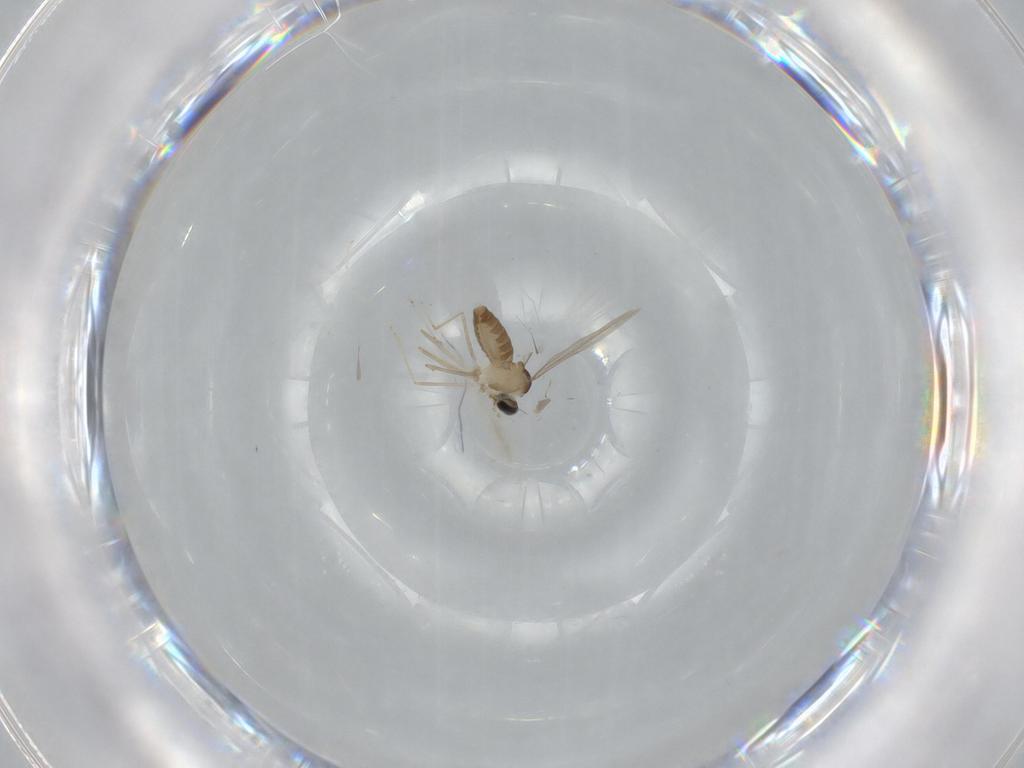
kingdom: Animalia
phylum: Arthropoda
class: Insecta
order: Diptera
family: Cecidomyiidae
